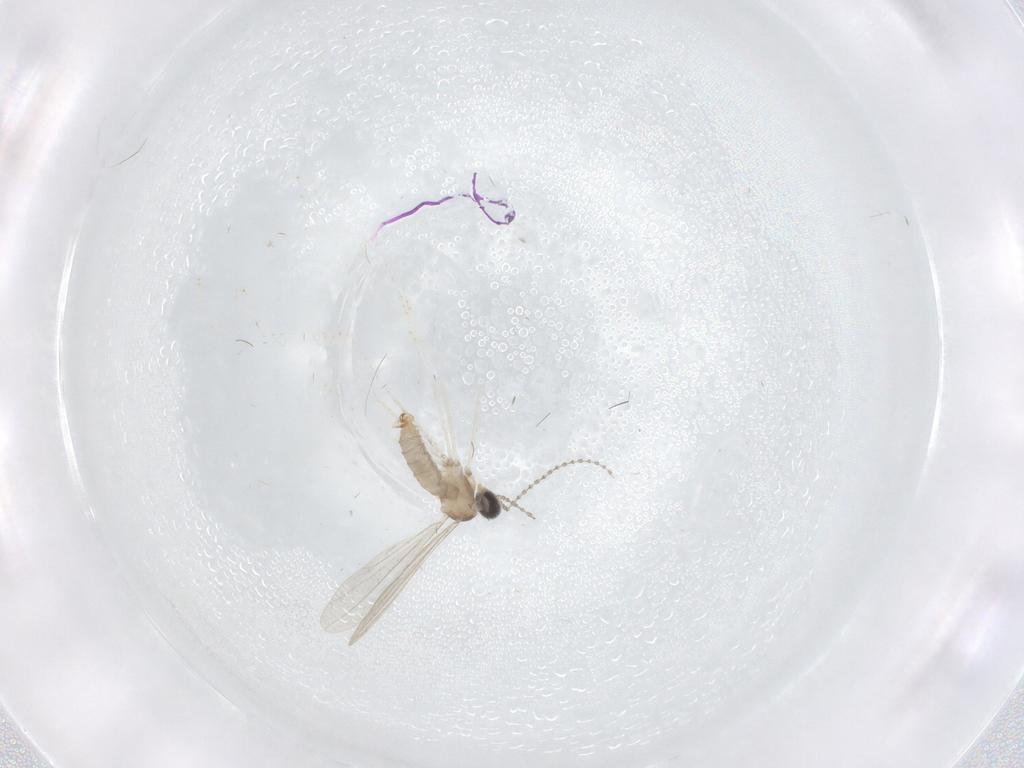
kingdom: Animalia
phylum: Arthropoda
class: Insecta
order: Diptera
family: Cecidomyiidae
